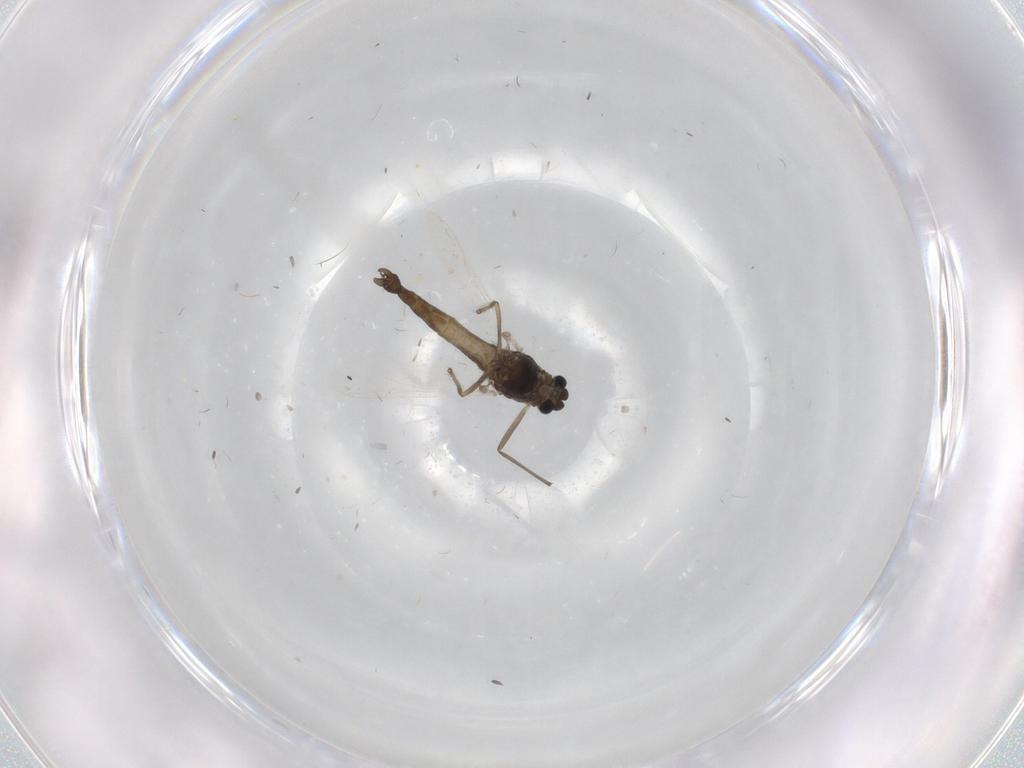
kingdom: Animalia
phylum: Arthropoda
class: Insecta
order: Diptera
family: Chironomidae
